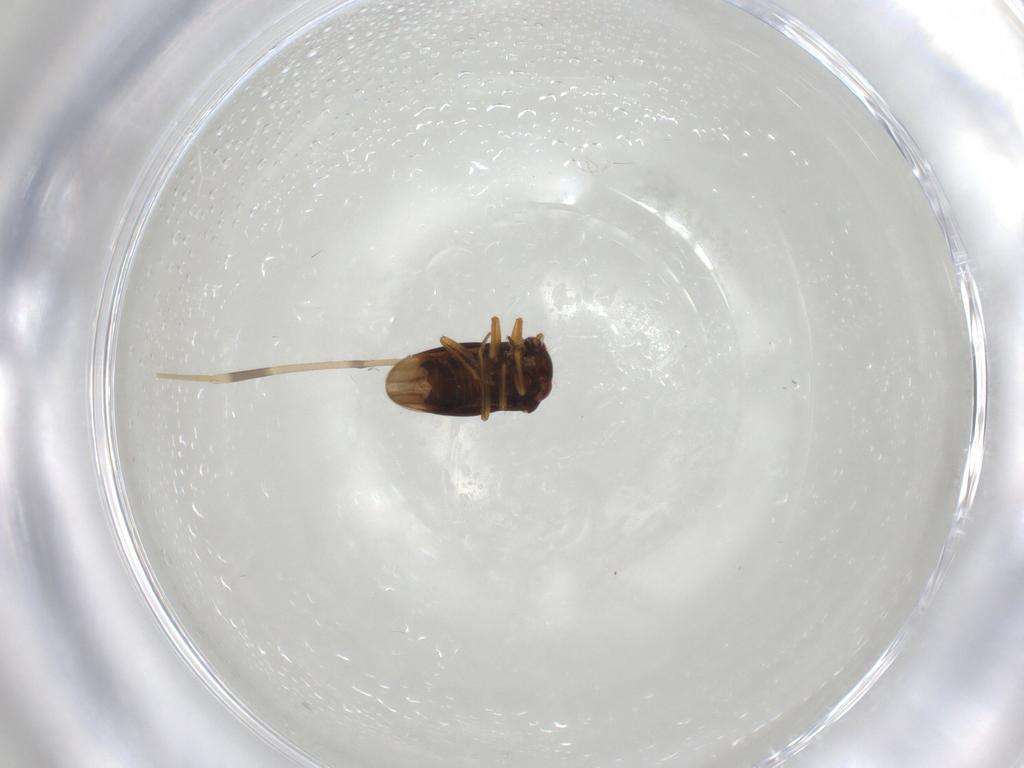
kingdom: Animalia
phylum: Arthropoda
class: Insecta
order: Hemiptera
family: Schizopteridae
